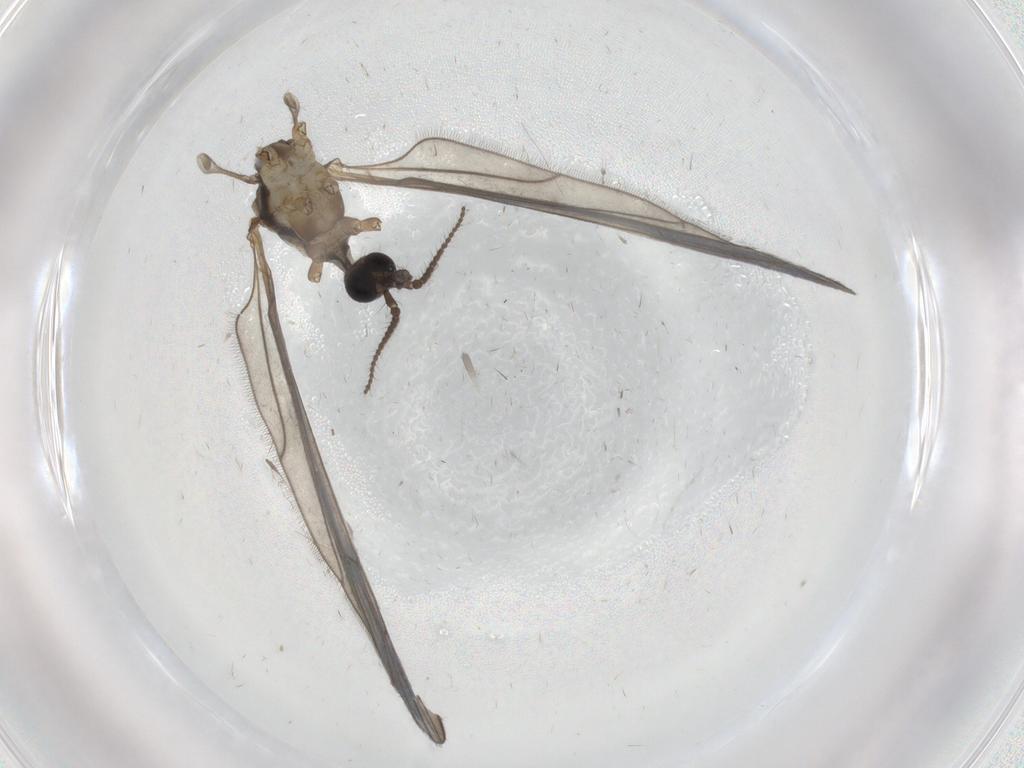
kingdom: Animalia
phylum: Arthropoda
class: Insecta
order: Diptera
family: Limoniidae
